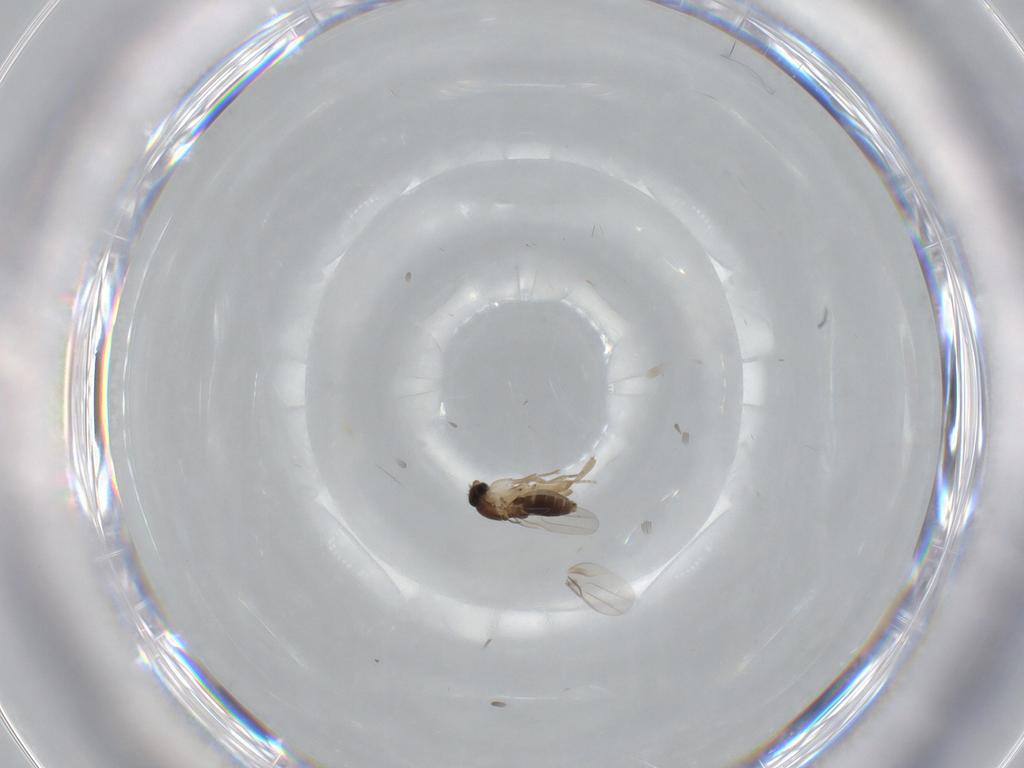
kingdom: Animalia
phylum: Arthropoda
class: Insecta
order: Diptera
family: Phoridae
